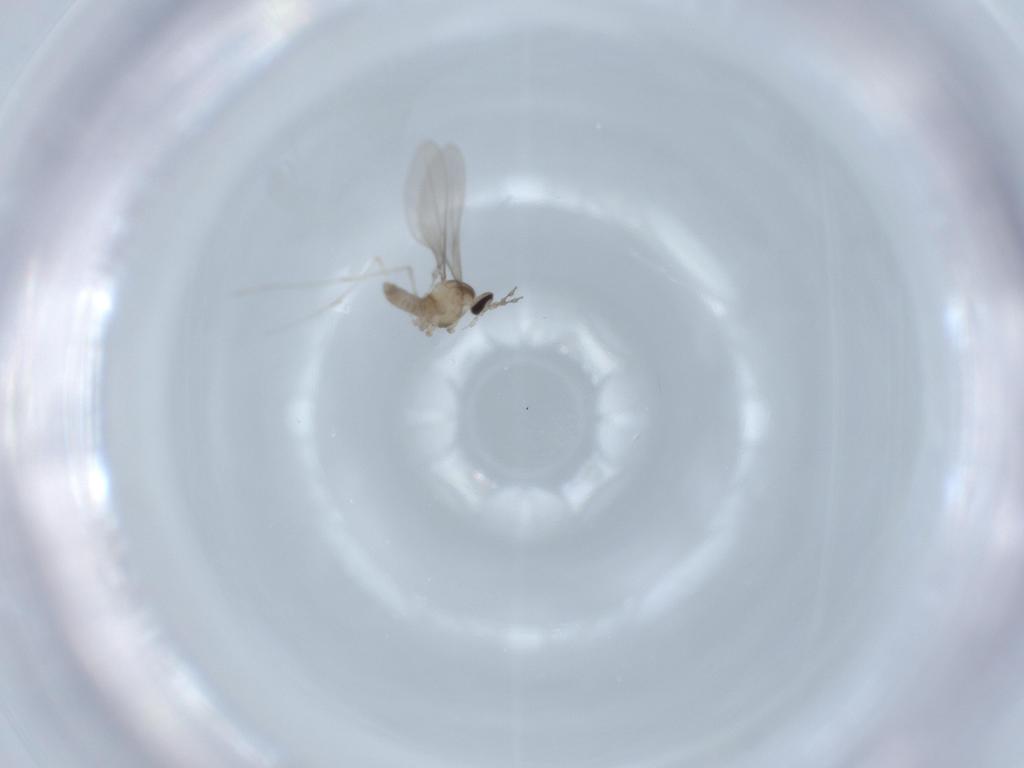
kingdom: Animalia
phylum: Arthropoda
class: Insecta
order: Diptera
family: Cecidomyiidae
